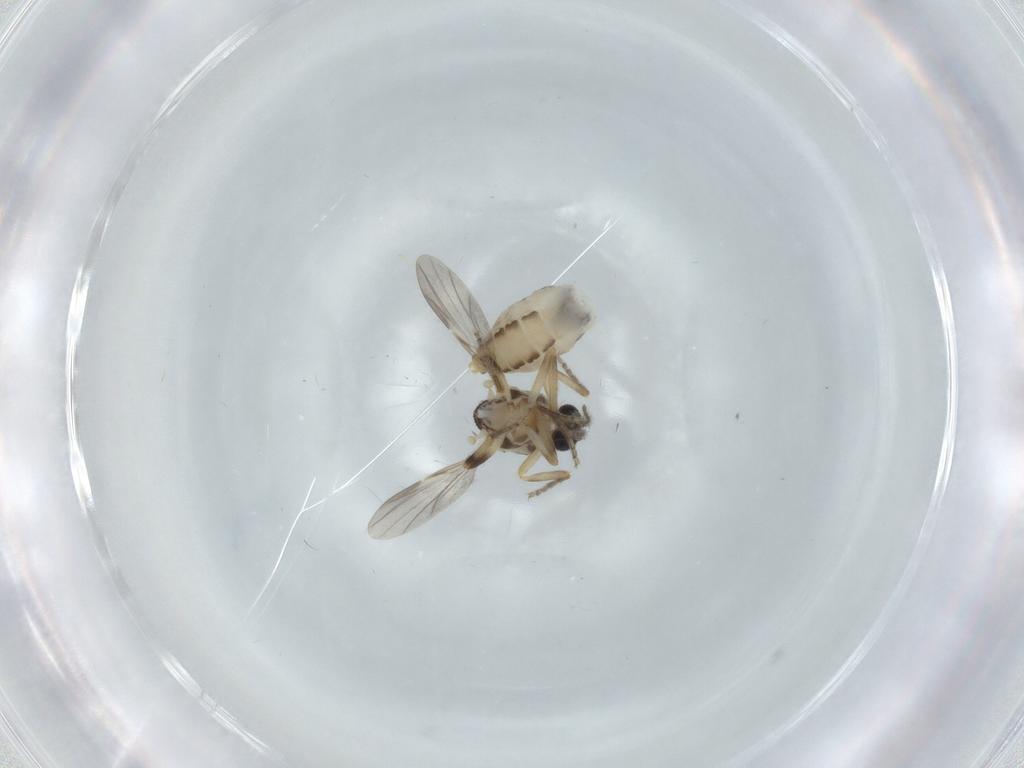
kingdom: Animalia
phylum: Arthropoda
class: Insecta
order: Diptera
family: Ceratopogonidae
